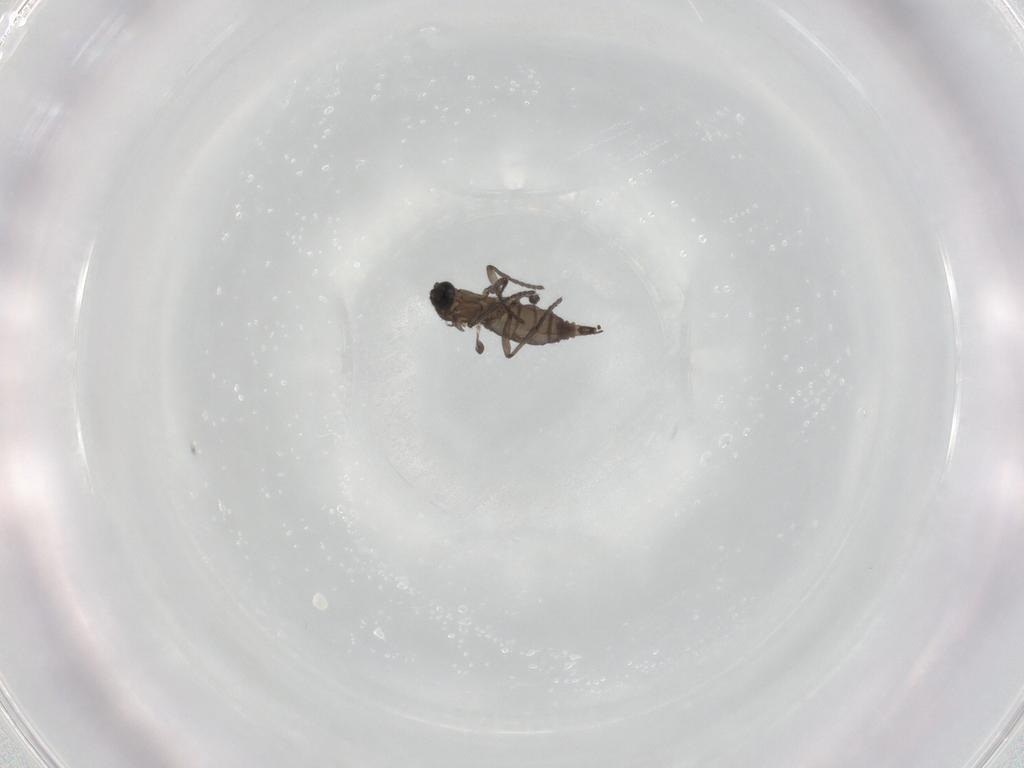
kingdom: Animalia
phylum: Arthropoda
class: Insecta
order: Diptera
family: Sciaridae
